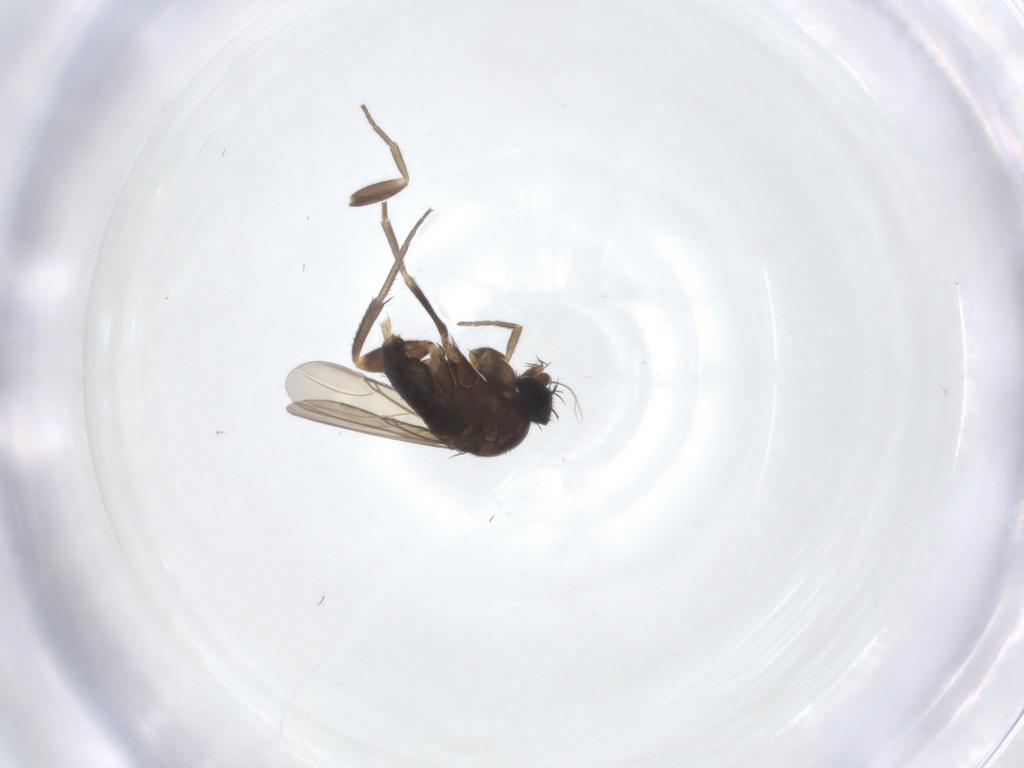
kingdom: Animalia
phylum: Arthropoda
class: Insecta
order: Diptera
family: Phoridae
